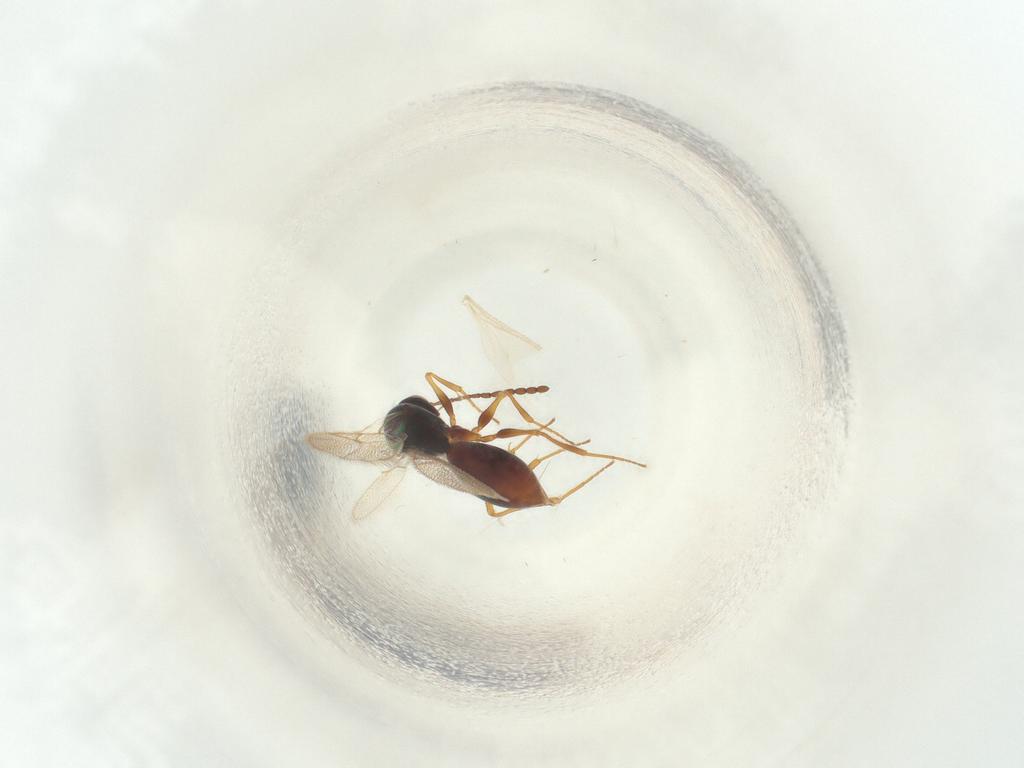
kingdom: Animalia
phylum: Arthropoda
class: Insecta
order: Hymenoptera
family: Figitidae
